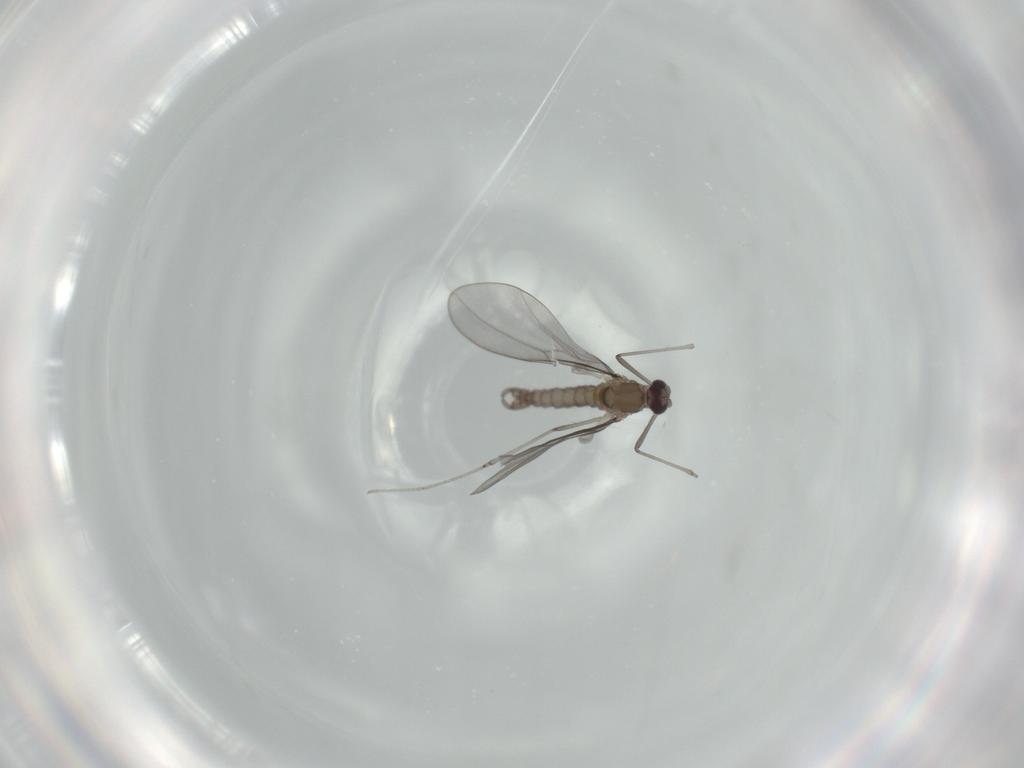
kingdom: Animalia
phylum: Arthropoda
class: Insecta
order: Diptera
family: Cecidomyiidae
